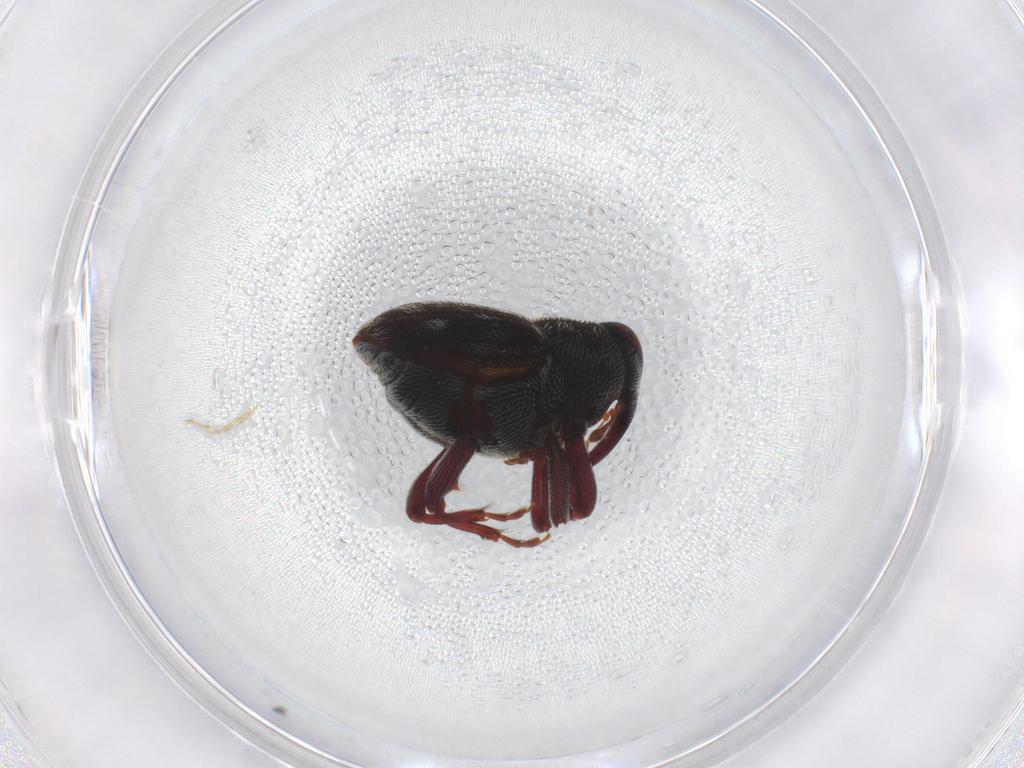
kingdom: Animalia
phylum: Arthropoda
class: Insecta
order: Coleoptera
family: Curculionidae
